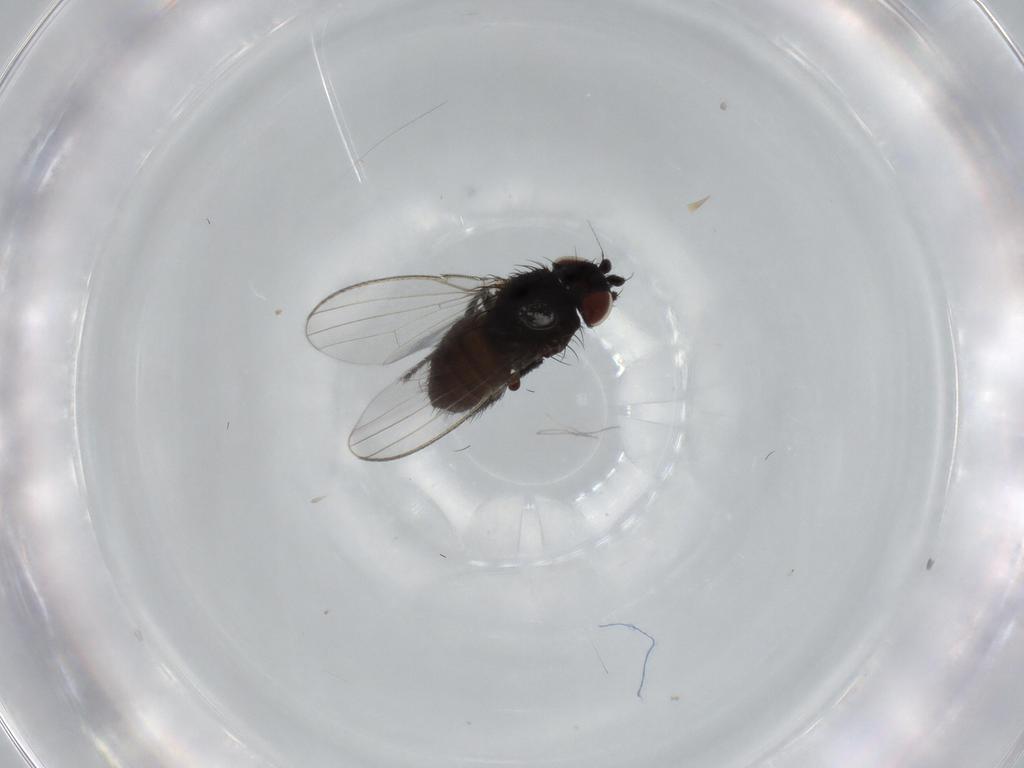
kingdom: Animalia
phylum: Arthropoda
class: Insecta
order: Diptera
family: Milichiidae
